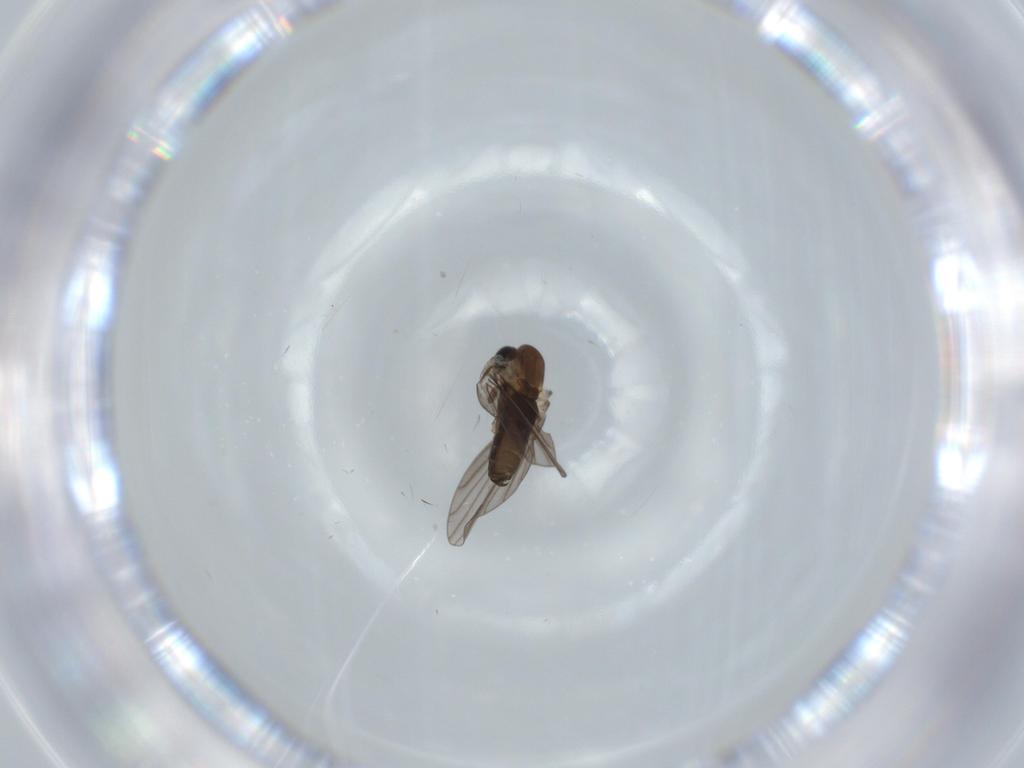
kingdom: Animalia
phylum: Arthropoda
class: Insecta
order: Diptera
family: Psychodidae
